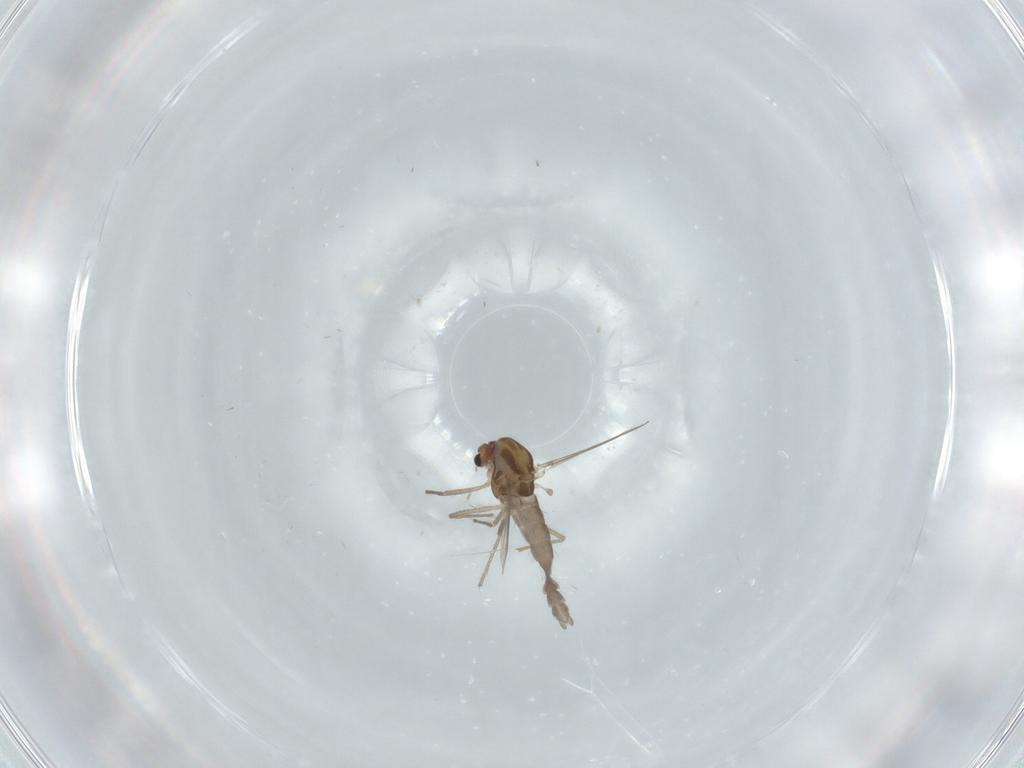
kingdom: Animalia
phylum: Arthropoda
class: Insecta
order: Diptera
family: Chironomidae
